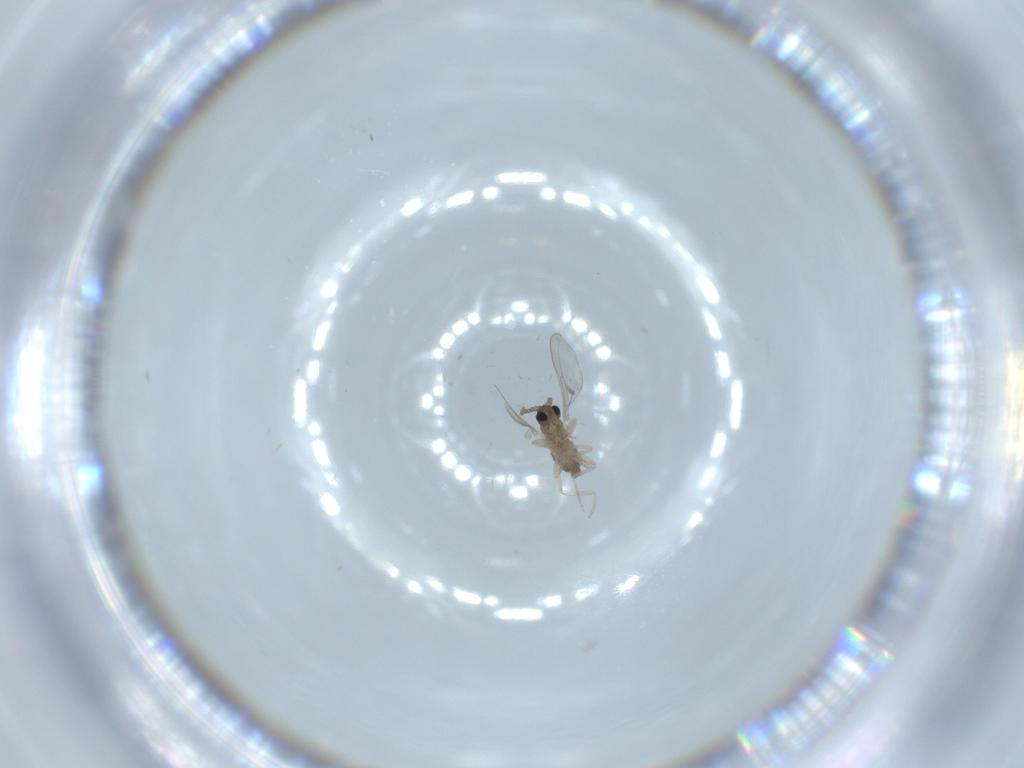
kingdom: Animalia
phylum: Arthropoda
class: Insecta
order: Diptera
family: Cecidomyiidae
